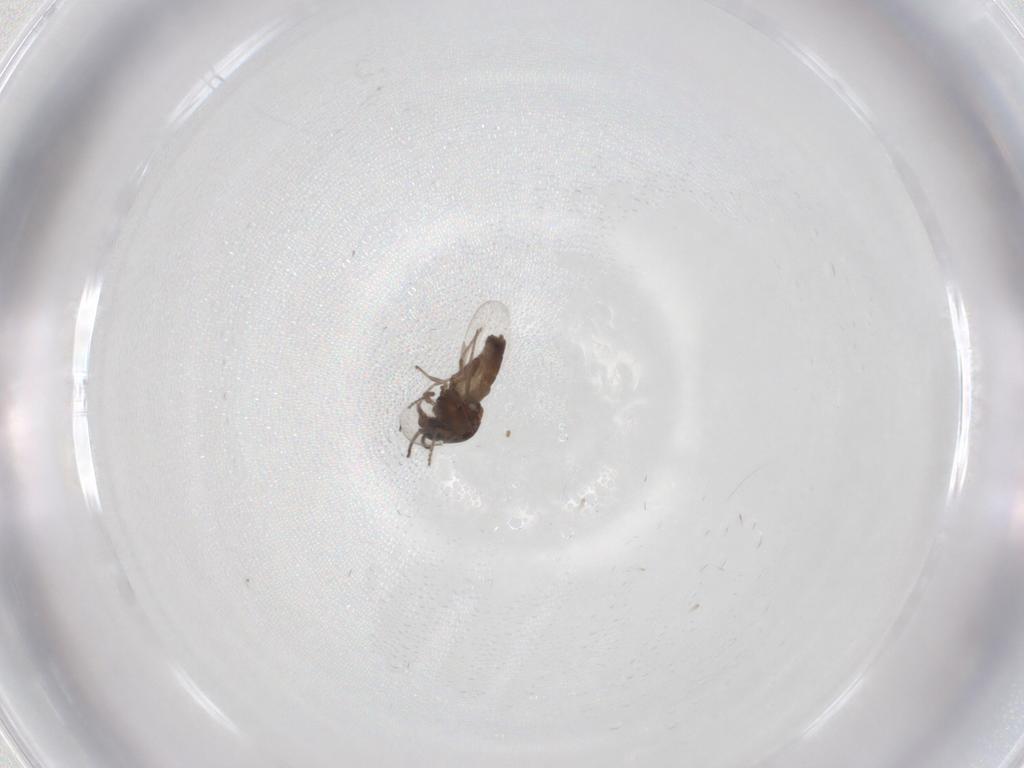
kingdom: Animalia
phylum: Arthropoda
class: Insecta
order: Diptera
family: Ceratopogonidae
